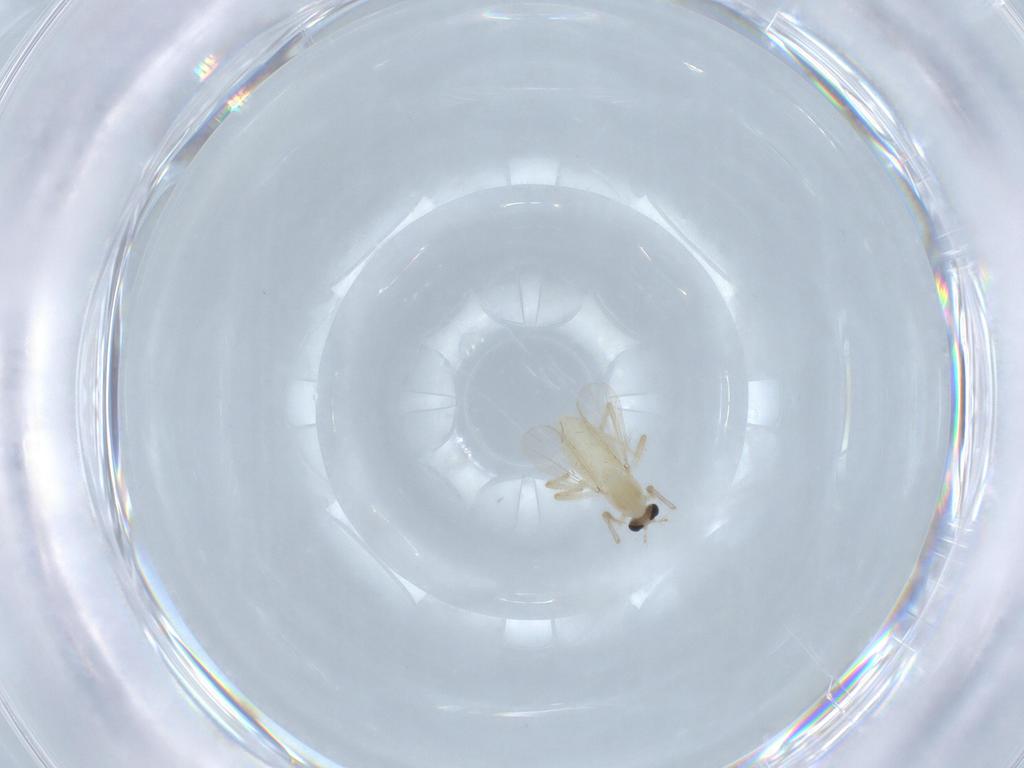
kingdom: Animalia
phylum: Arthropoda
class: Insecta
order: Diptera
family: Chironomidae
